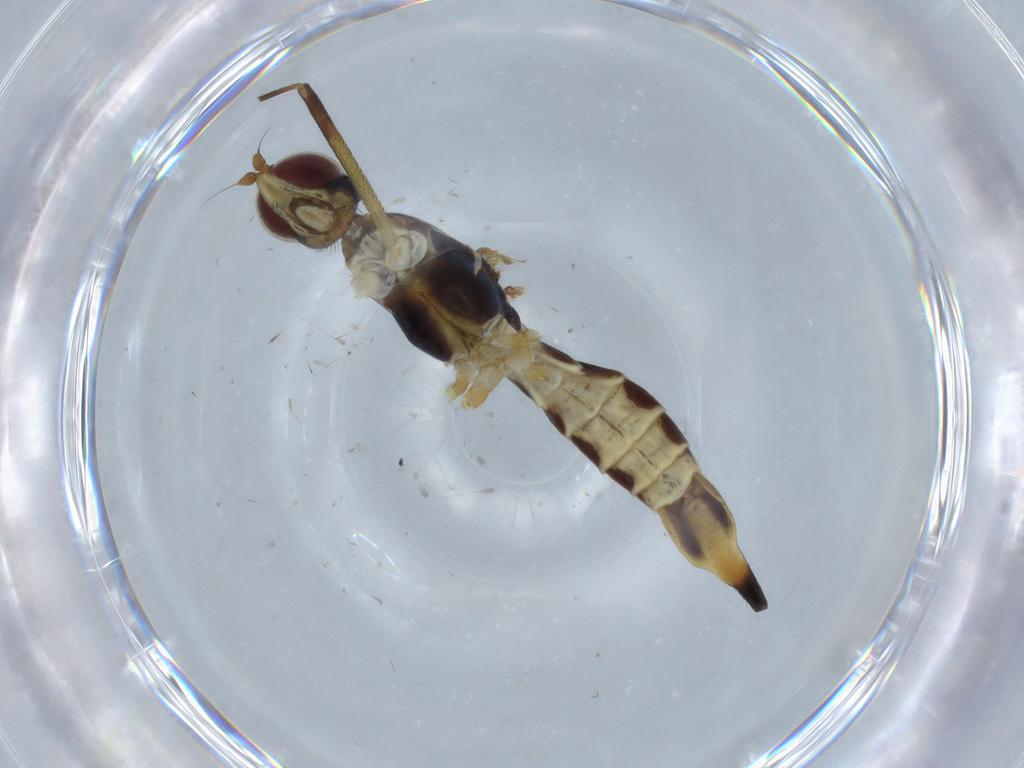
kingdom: Animalia
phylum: Arthropoda
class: Insecta
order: Diptera
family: Micropezidae
